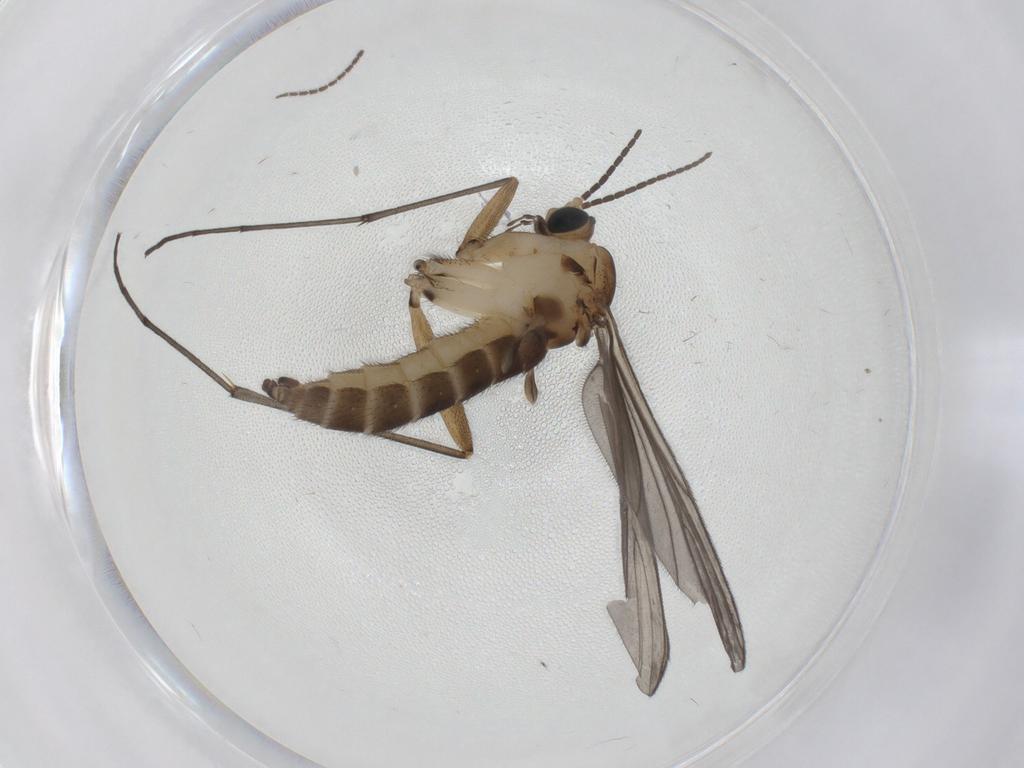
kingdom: Animalia
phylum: Arthropoda
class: Insecta
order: Diptera
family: Sciaridae
